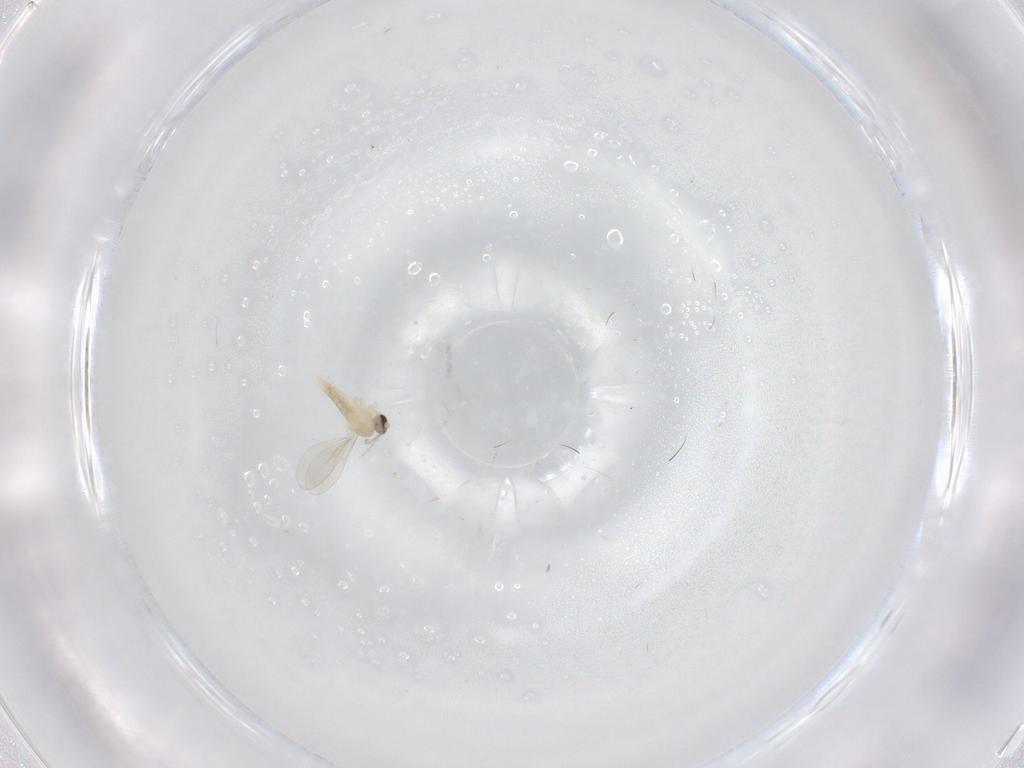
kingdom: Animalia
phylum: Arthropoda
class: Insecta
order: Diptera
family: Cecidomyiidae
